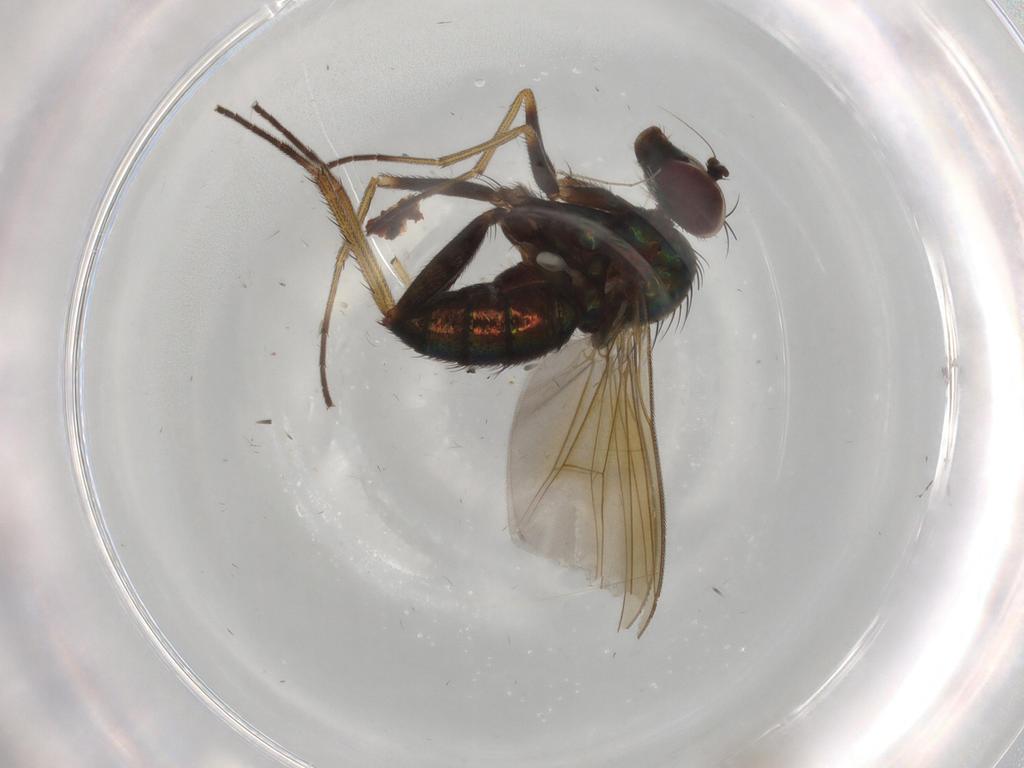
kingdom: Animalia
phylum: Arthropoda
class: Insecta
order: Diptera
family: Dolichopodidae
